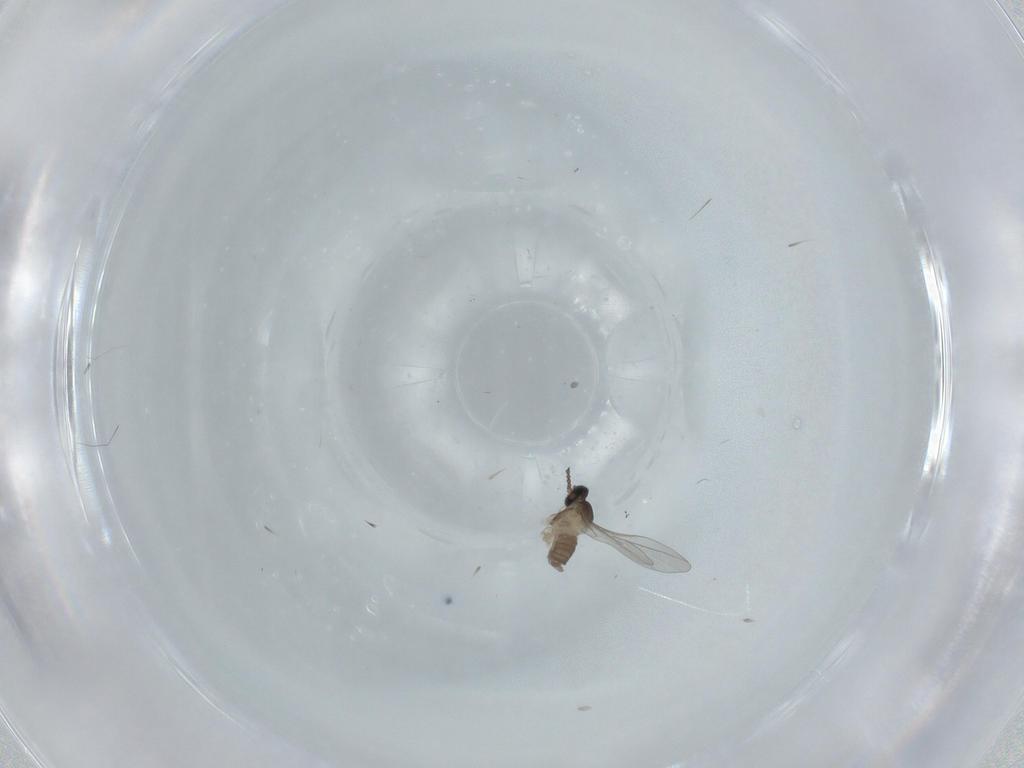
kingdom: Animalia
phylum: Arthropoda
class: Insecta
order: Diptera
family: Cecidomyiidae
